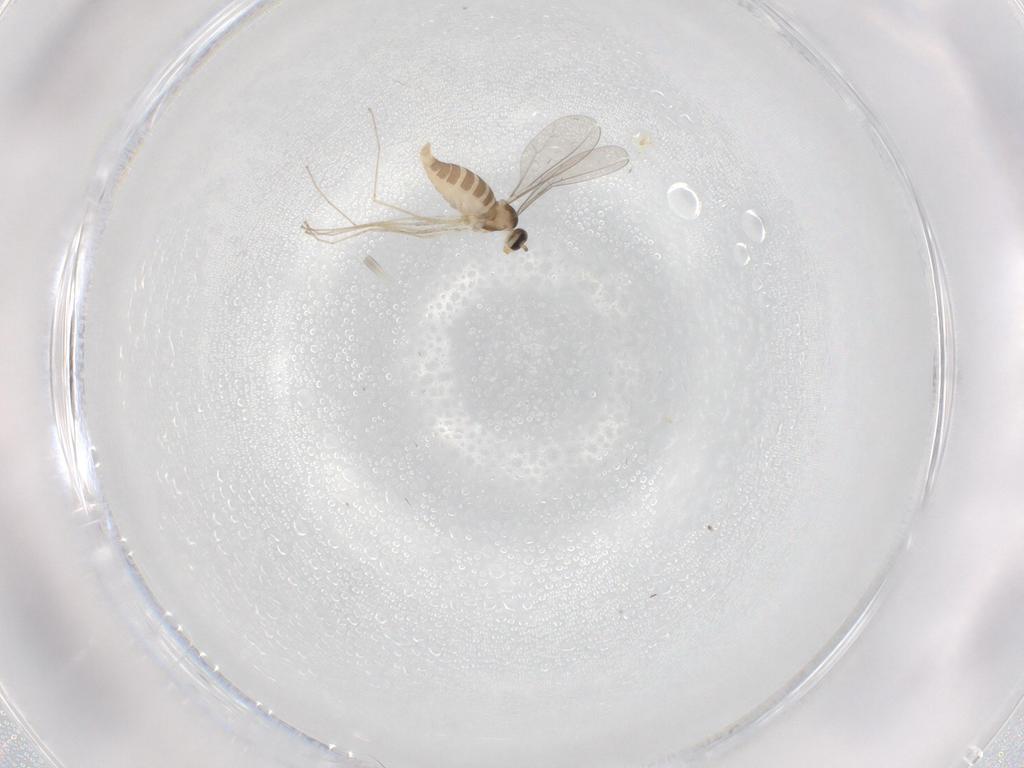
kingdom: Animalia
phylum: Arthropoda
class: Insecta
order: Diptera
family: Cecidomyiidae
